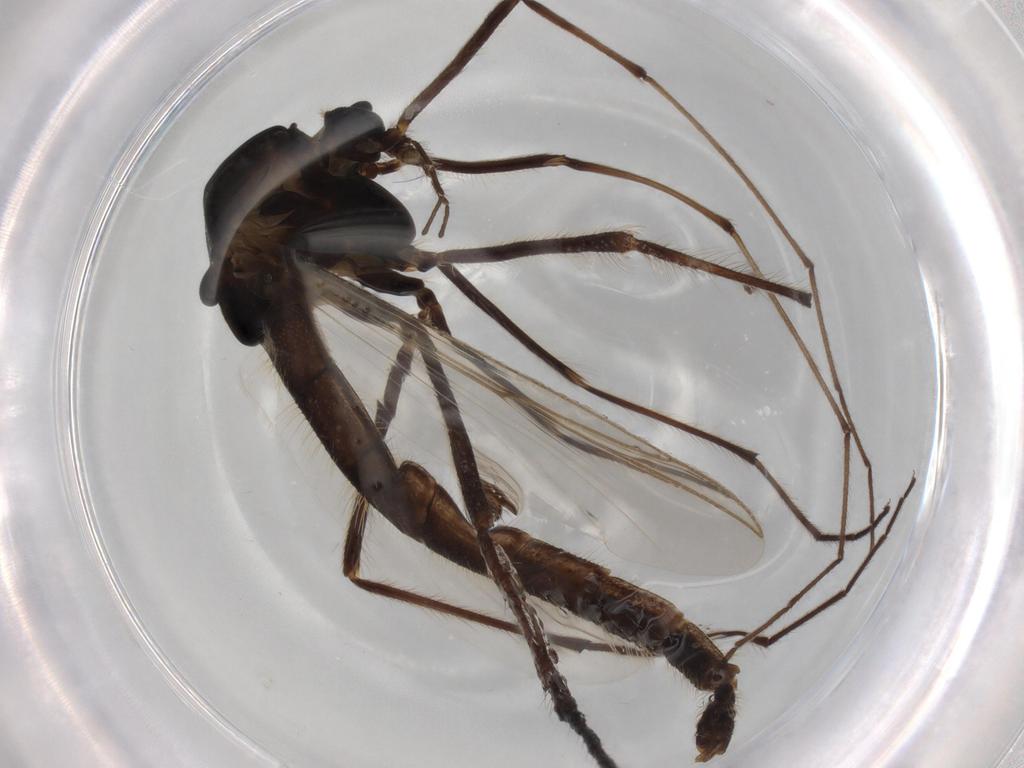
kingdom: Animalia
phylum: Arthropoda
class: Insecta
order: Diptera
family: Chironomidae
